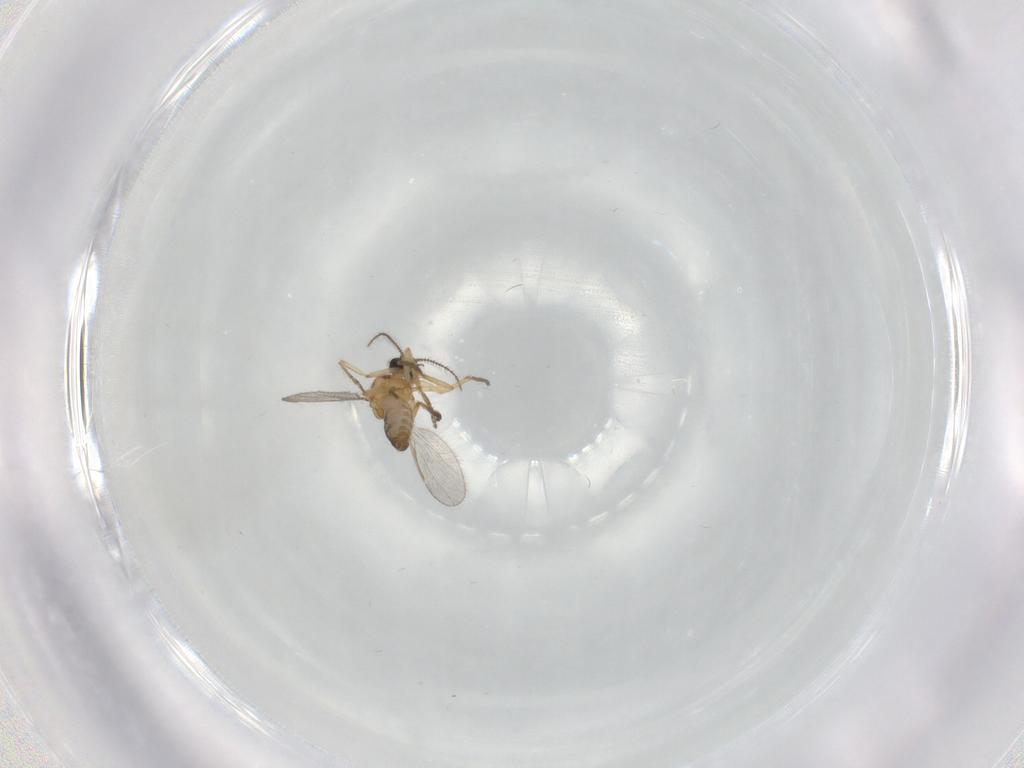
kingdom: Animalia
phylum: Arthropoda
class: Insecta
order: Diptera
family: Ceratopogonidae
